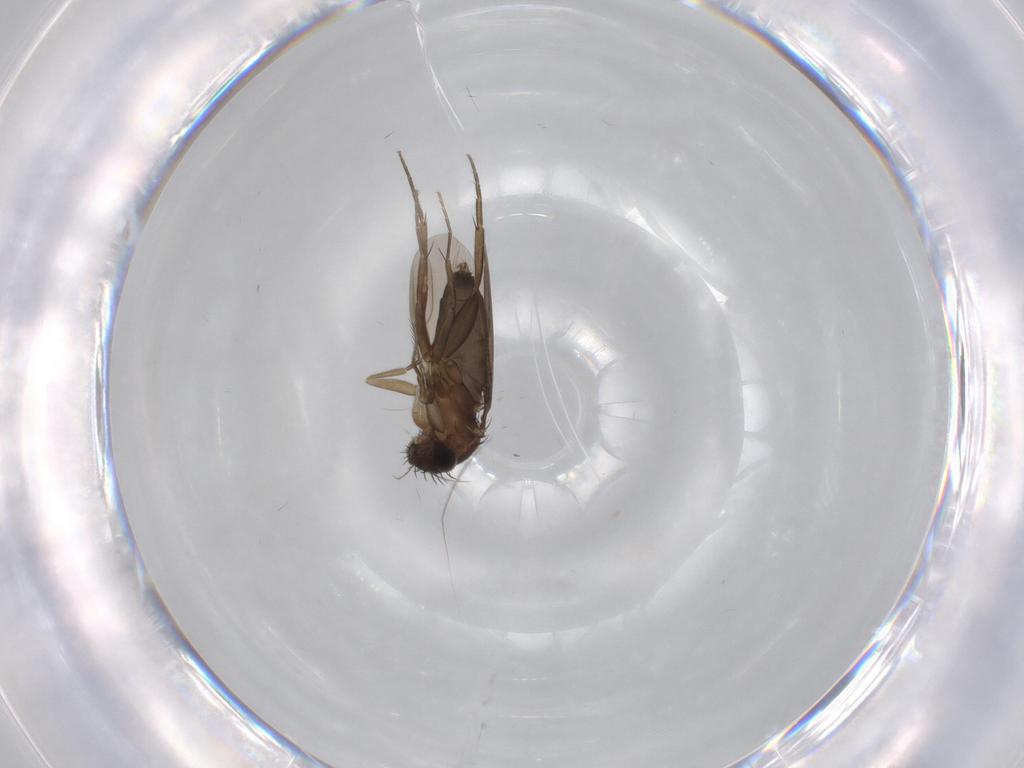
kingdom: Animalia
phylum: Arthropoda
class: Insecta
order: Diptera
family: Phoridae
